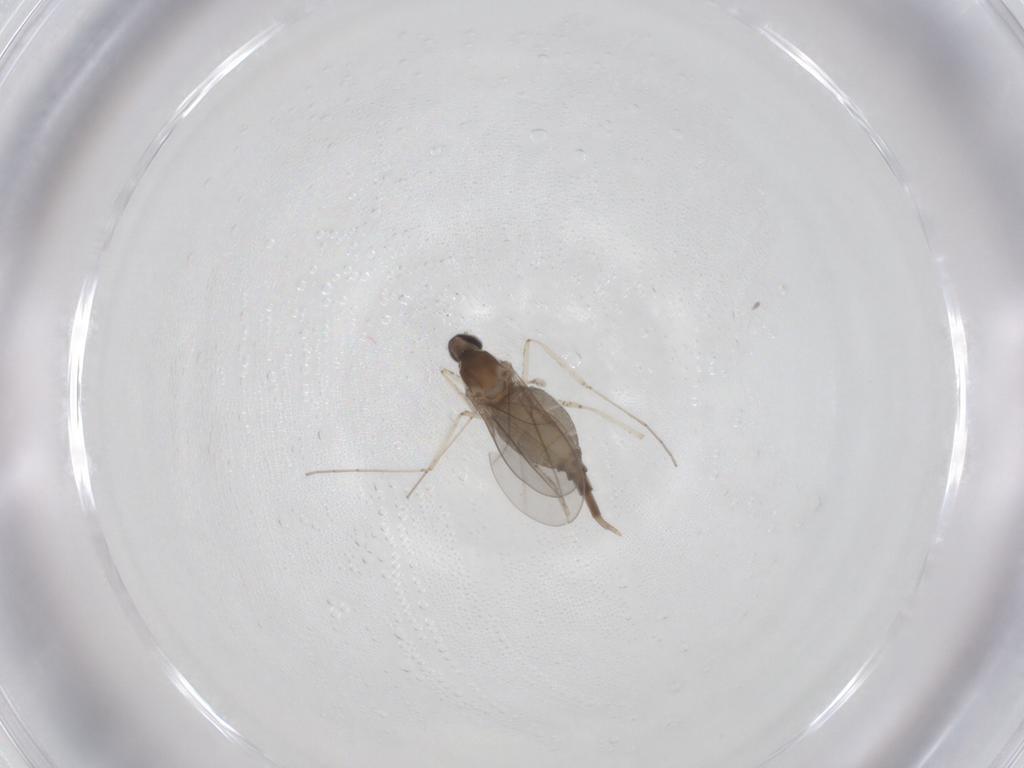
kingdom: Animalia
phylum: Arthropoda
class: Insecta
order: Diptera
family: Cecidomyiidae
